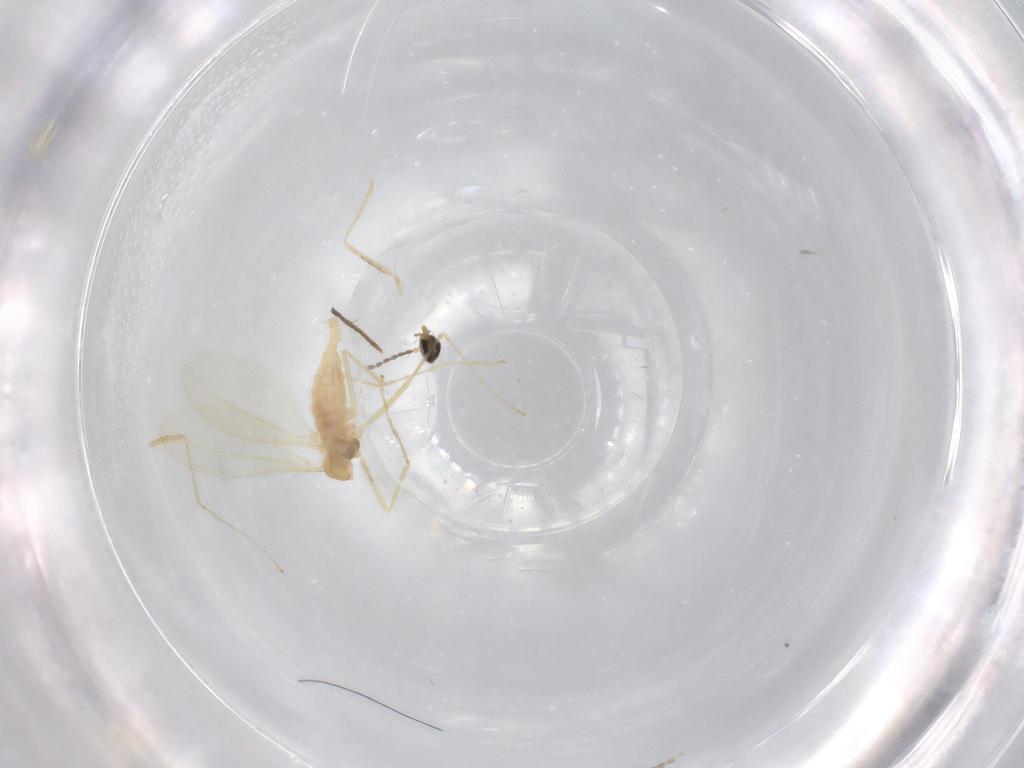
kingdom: Animalia
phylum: Arthropoda
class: Insecta
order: Diptera
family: Cecidomyiidae
